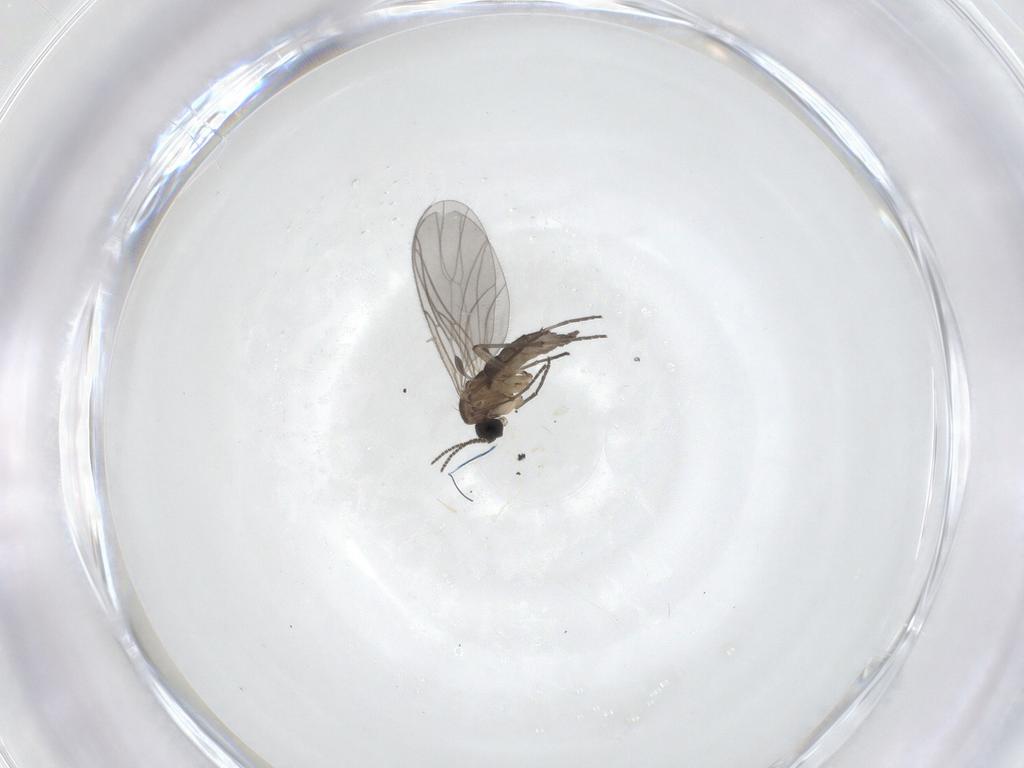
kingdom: Animalia
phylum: Arthropoda
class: Insecta
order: Diptera
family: Sciaridae
